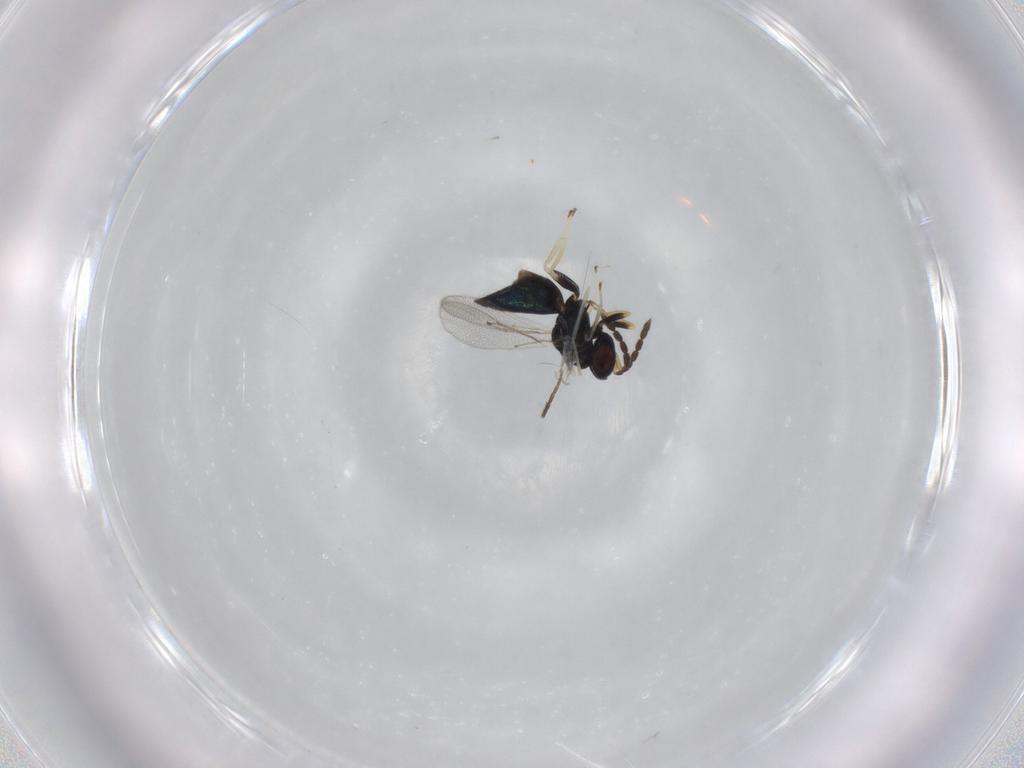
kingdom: Animalia
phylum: Arthropoda
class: Insecta
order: Hymenoptera
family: Eulophidae
